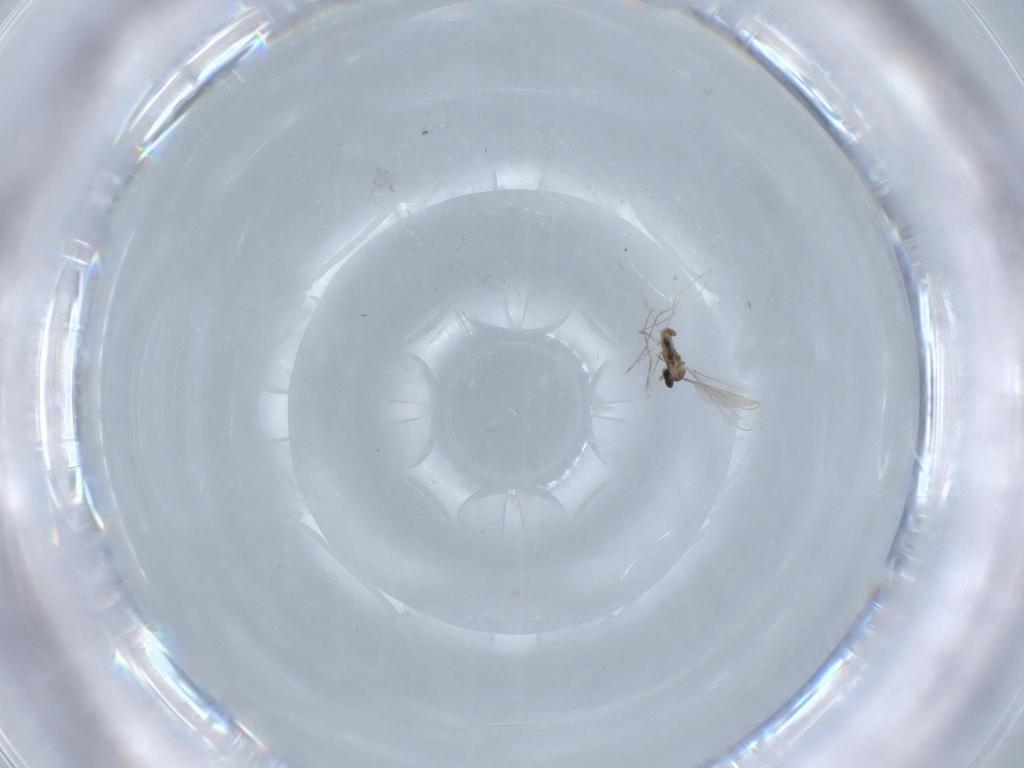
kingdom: Animalia
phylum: Arthropoda
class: Insecta
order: Diptera
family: Cecidomyiidae
